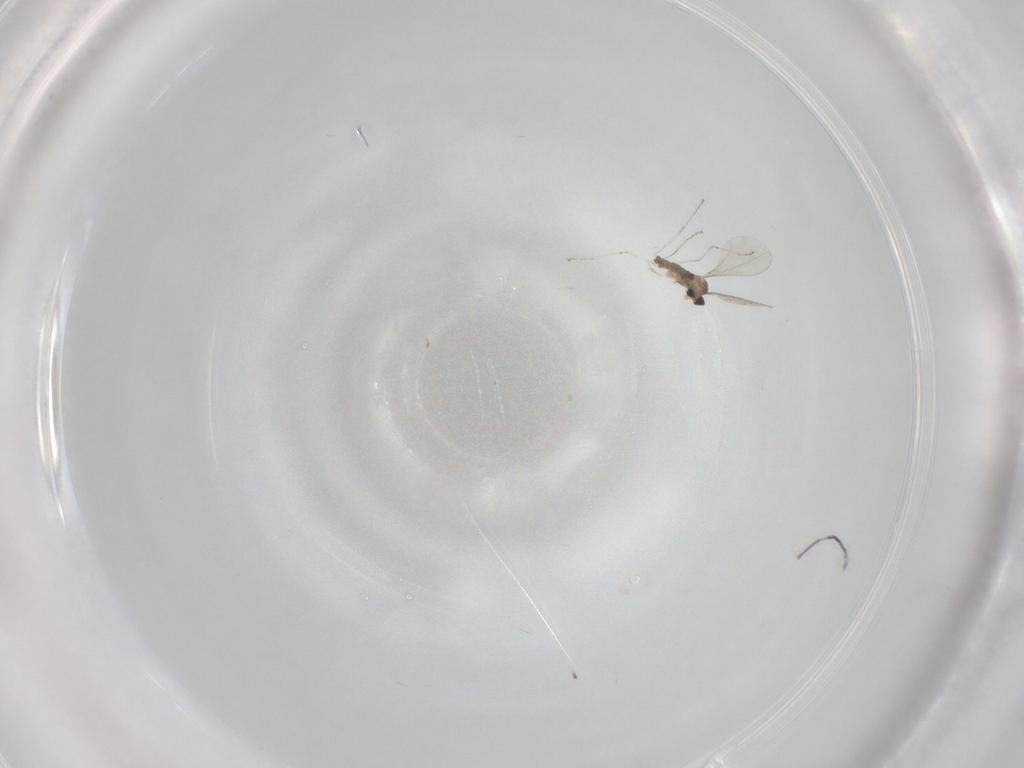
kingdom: Animalia
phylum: Arthropoda
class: Insecta
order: Diptera
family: Cecidomyiidae
